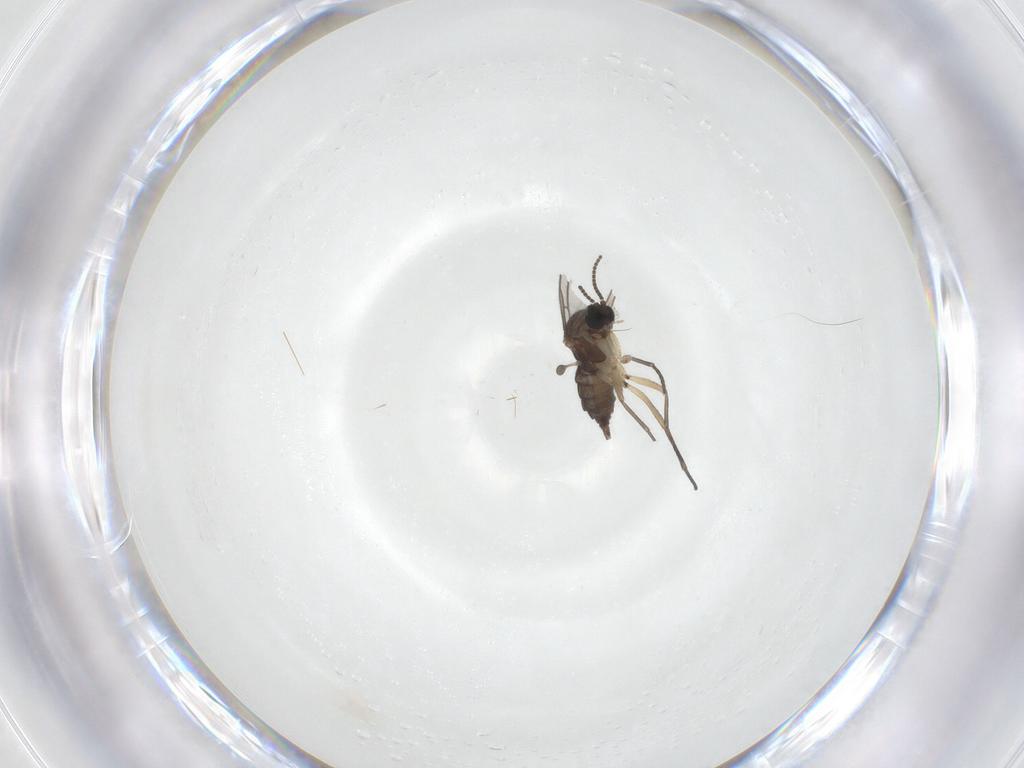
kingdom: Animalia
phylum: Arthropoda
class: Insecta
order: Diptera
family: Sciaridae
